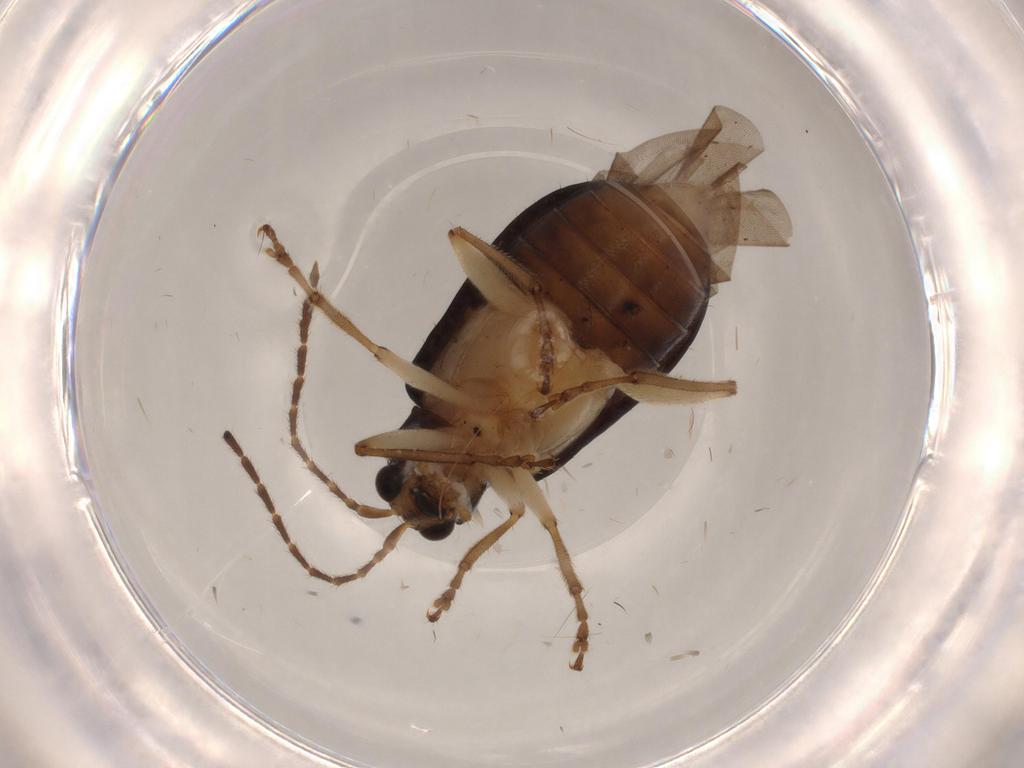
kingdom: Animalia
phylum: Arthropoda
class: Insecta
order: Coleoptera
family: Chrysomelidae
